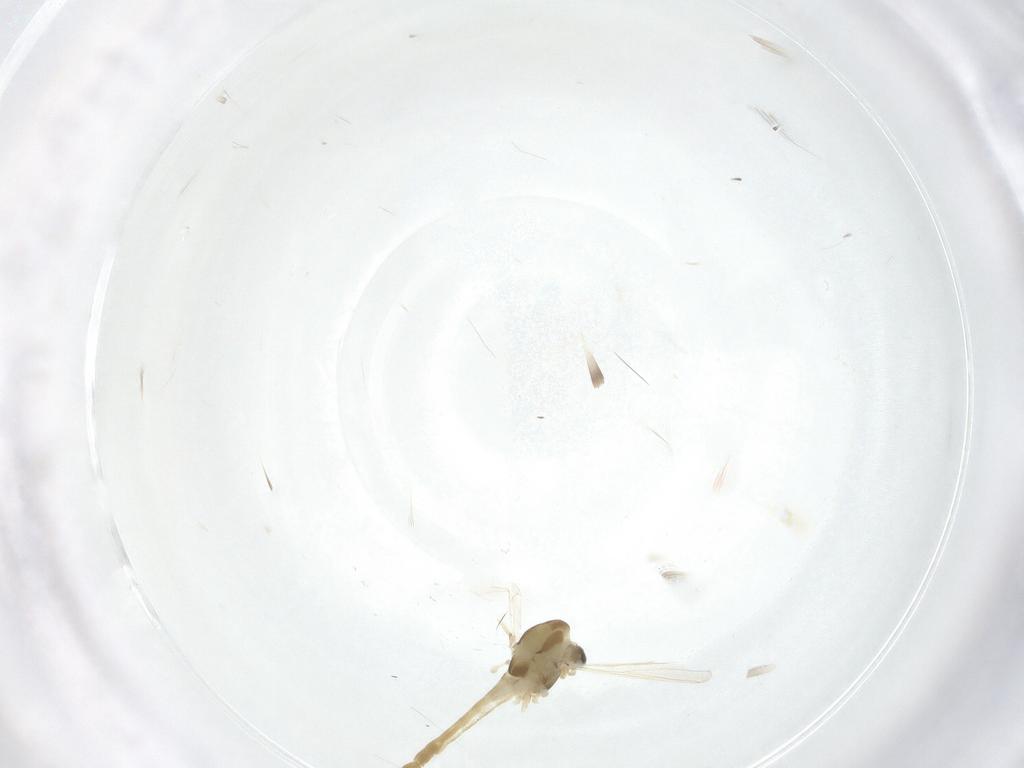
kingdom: Animalia
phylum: Arthropoda
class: Insecta
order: Diptera
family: Chironomidae
